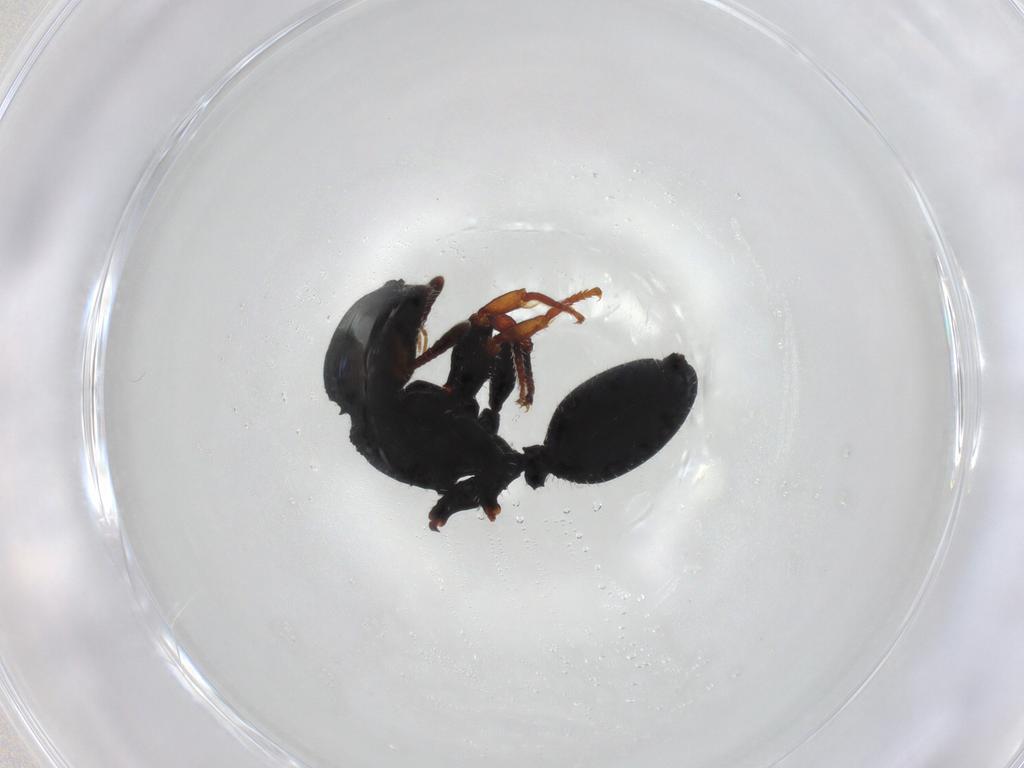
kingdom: Animalia
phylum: Arthropoda
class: Insecta
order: Hymenoptera
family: Formicidae
